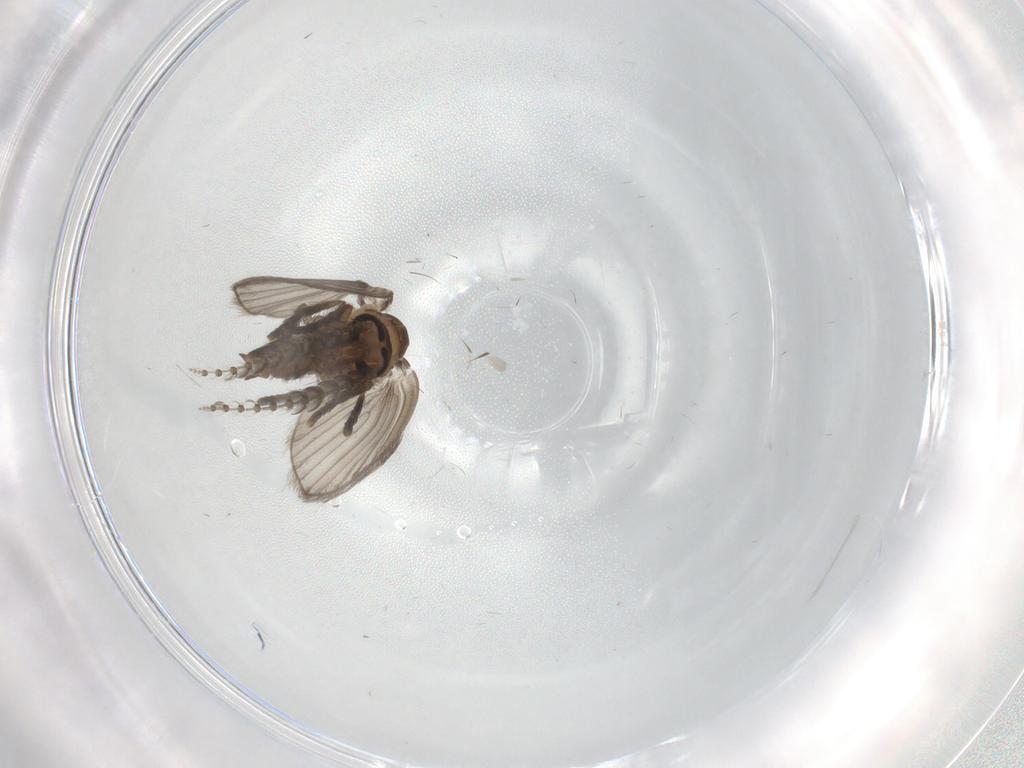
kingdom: Animalia
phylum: Arthropoda
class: Insecta
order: Diptera
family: Psychodidae
